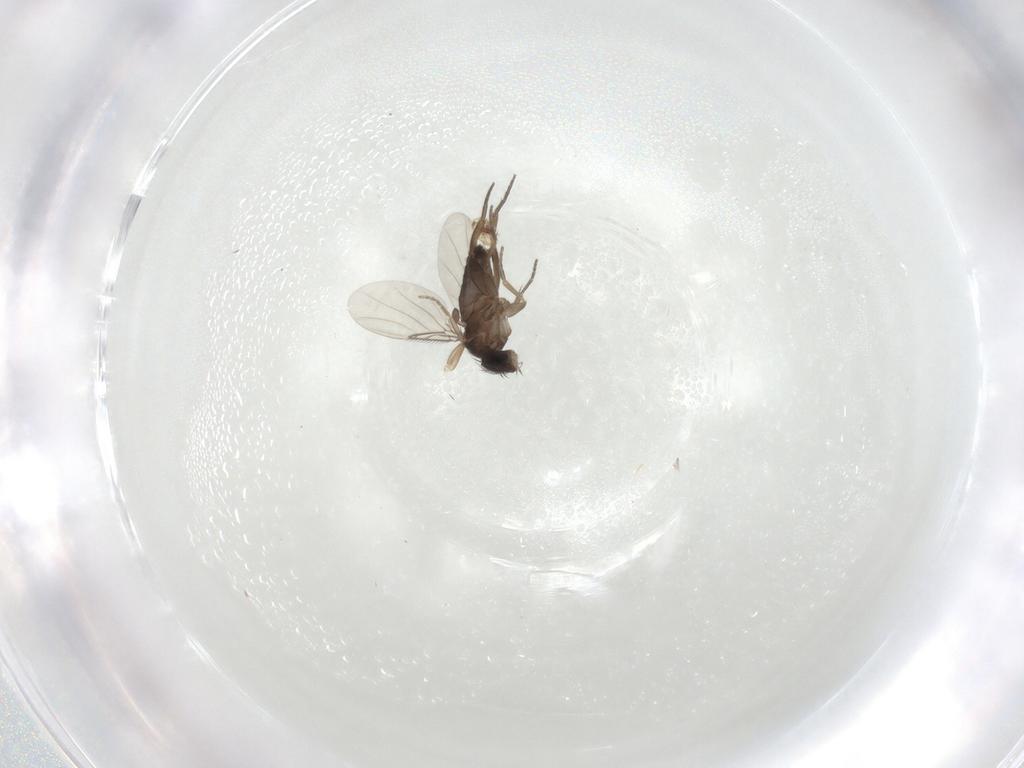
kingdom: Animalia
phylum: Arthropoda
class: Insecta
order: Diptera
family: Phoridae
